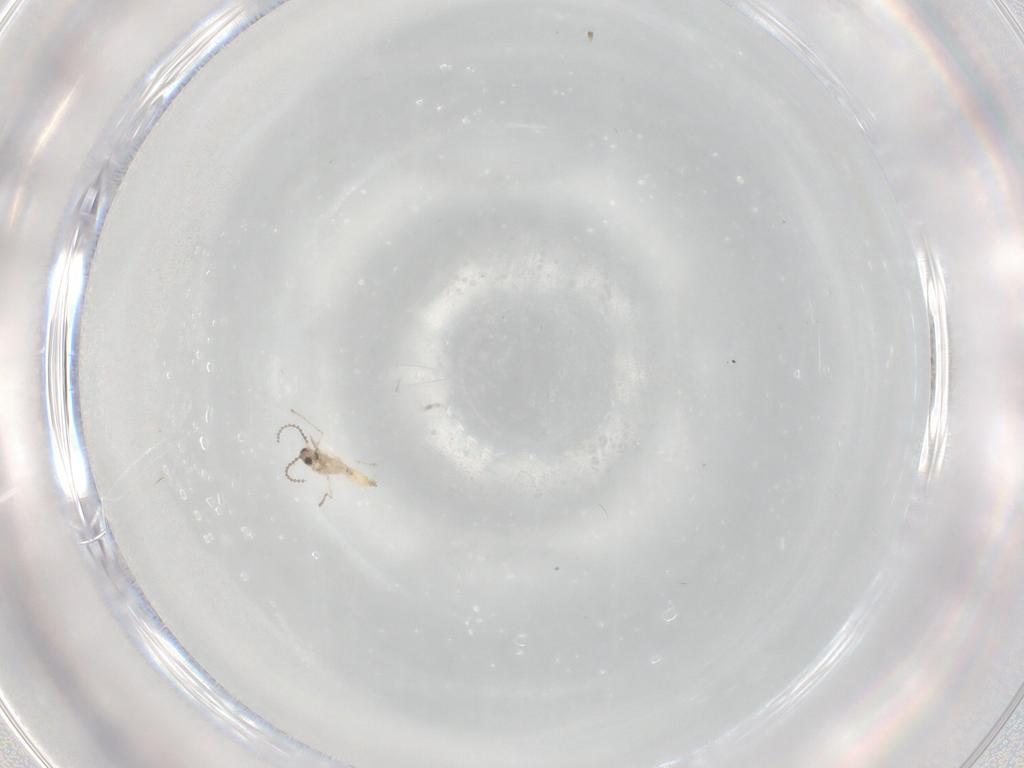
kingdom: Animalia
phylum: Arthropoda
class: Insecta
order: Diptera
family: Cecidomyiidae
